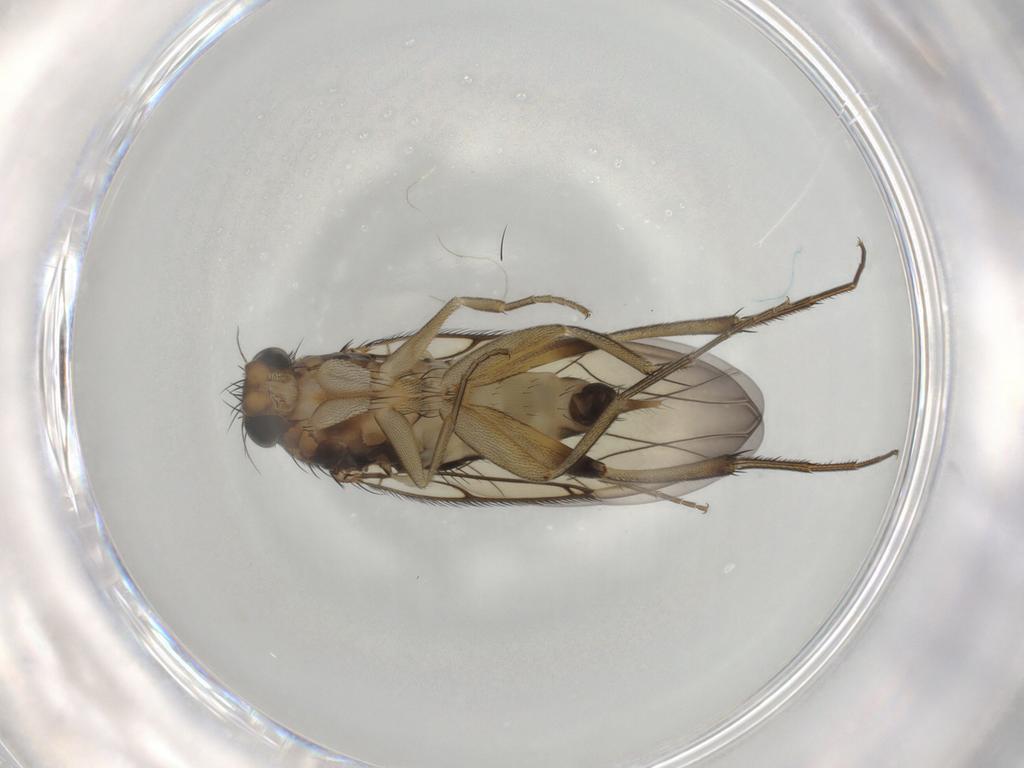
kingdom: Animalia
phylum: Arthropoda
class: Insecta
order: Diptera
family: Phoridae
